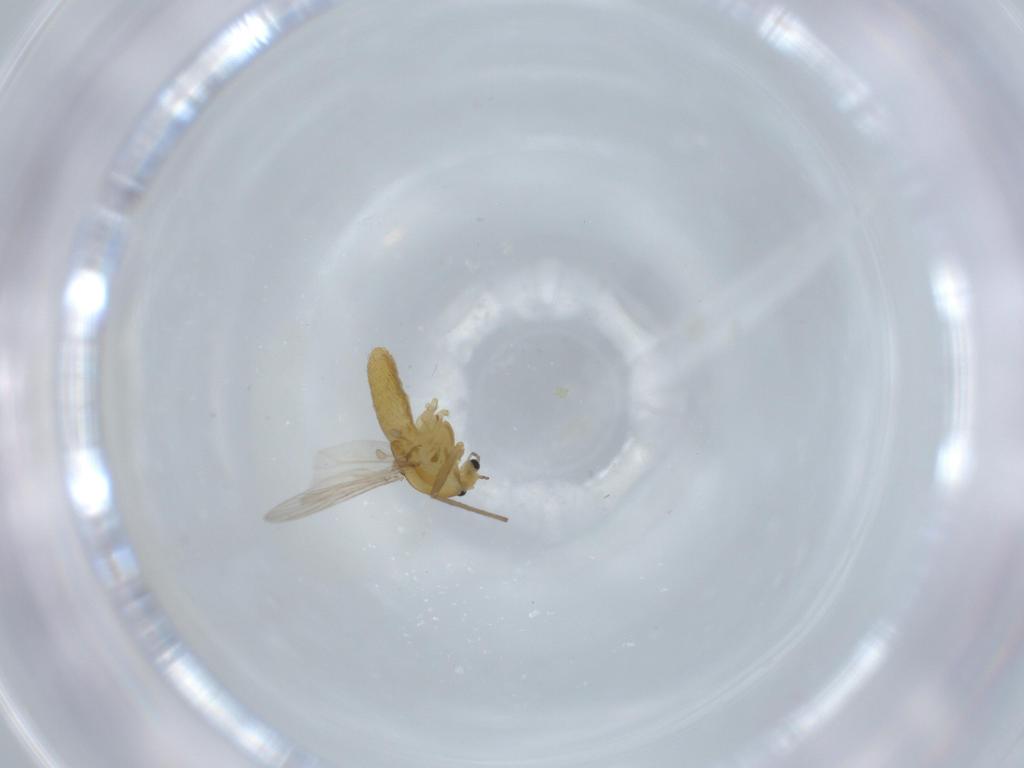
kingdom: Animalia
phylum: Arthropoda
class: Insecta
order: Diptera
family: Chironomidae
